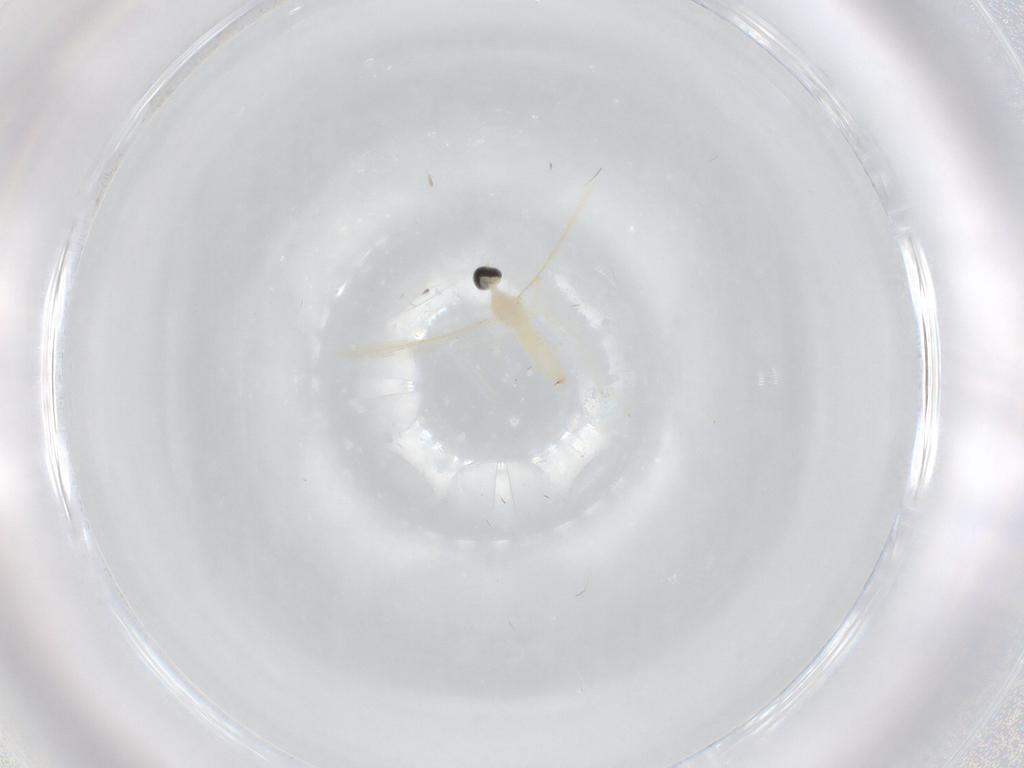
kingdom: Animalia
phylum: Arthropoda
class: Insecta
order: Diptera
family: Cecidomyiidae
